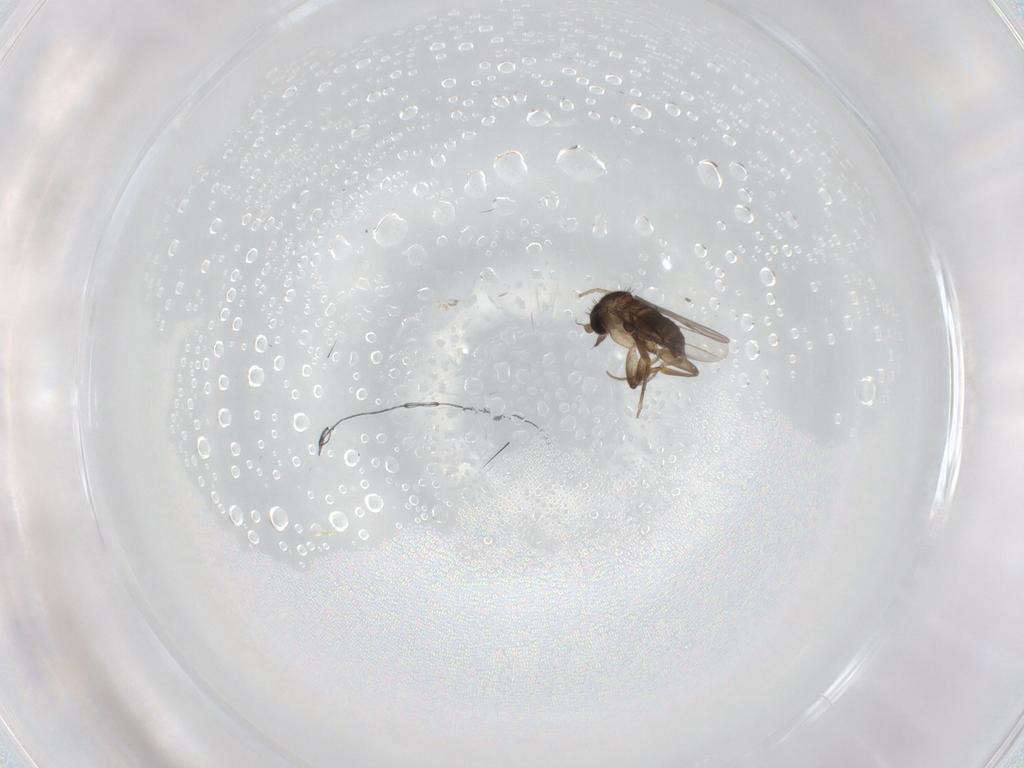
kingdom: Animalia
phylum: Arthropoda
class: Insecta
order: Diptera
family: Sciaridae
